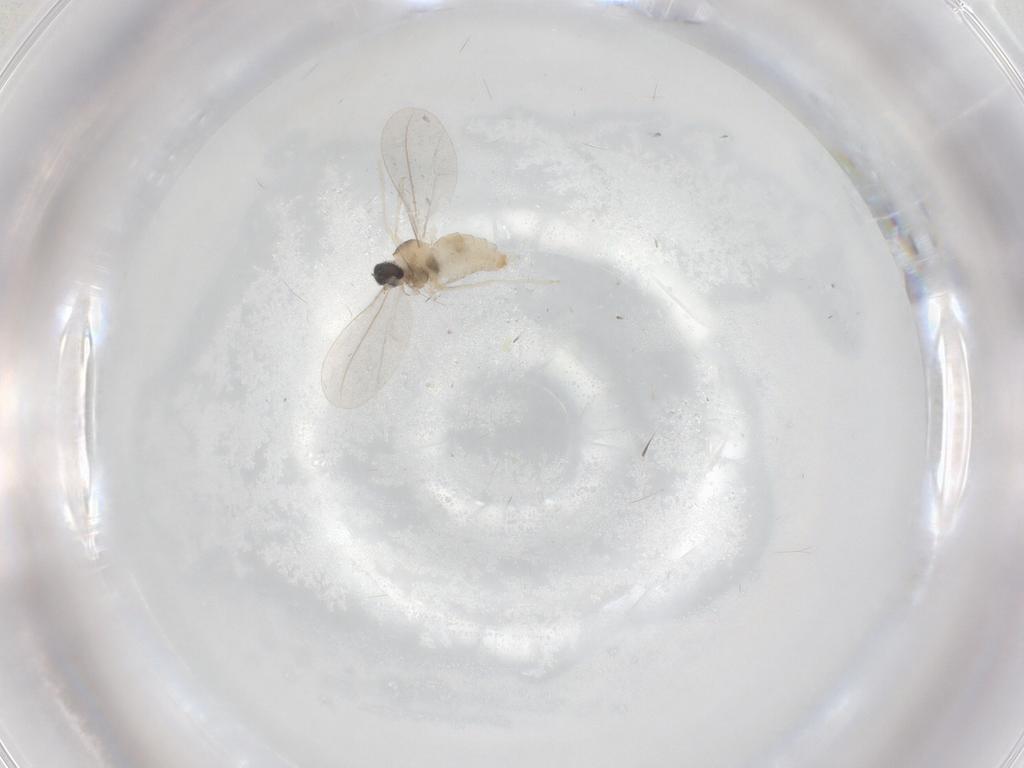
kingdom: Animalia
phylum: Arthropoda
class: Insecta
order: Diptera
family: Cecidomyiidae
